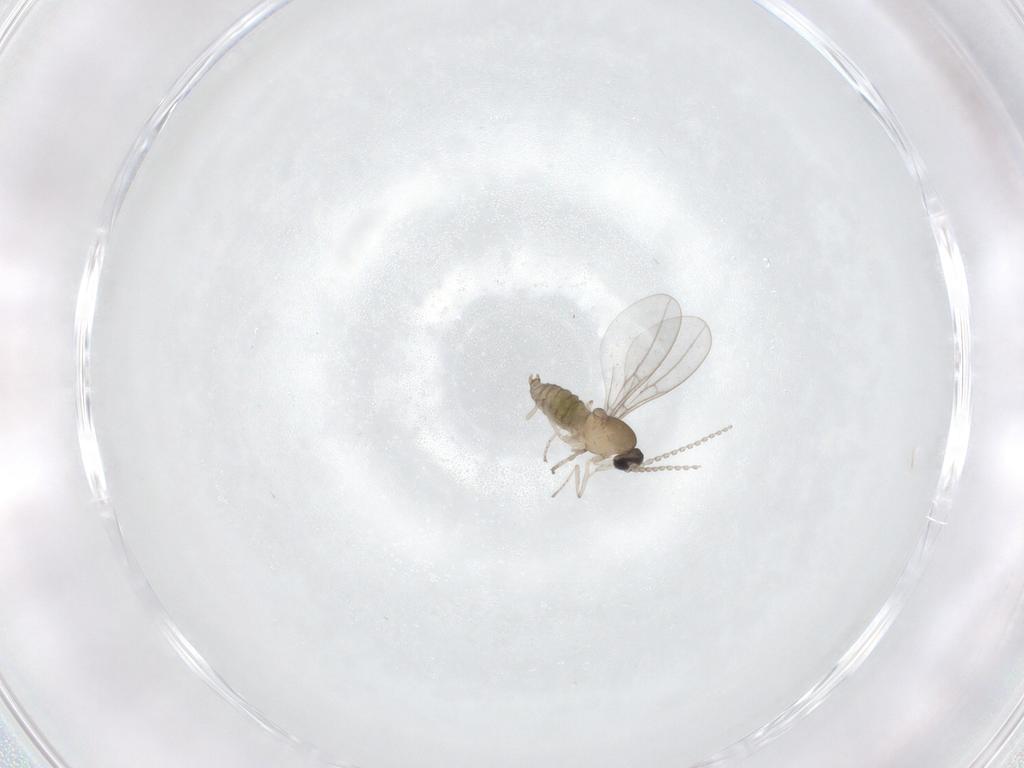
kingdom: Animalia
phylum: Arthropoda
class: Insecta
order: Diptera
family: Cecidomyiidae
